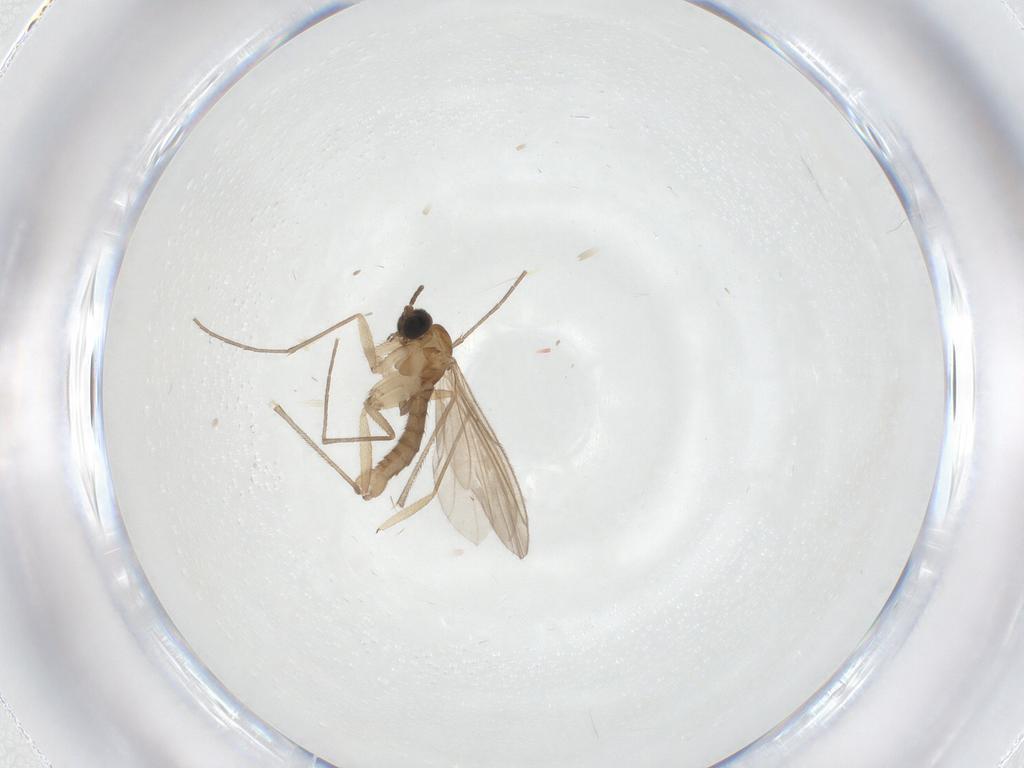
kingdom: Animalia
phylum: Arthropoda
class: Insecta
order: Diptera
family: Sciaridae
